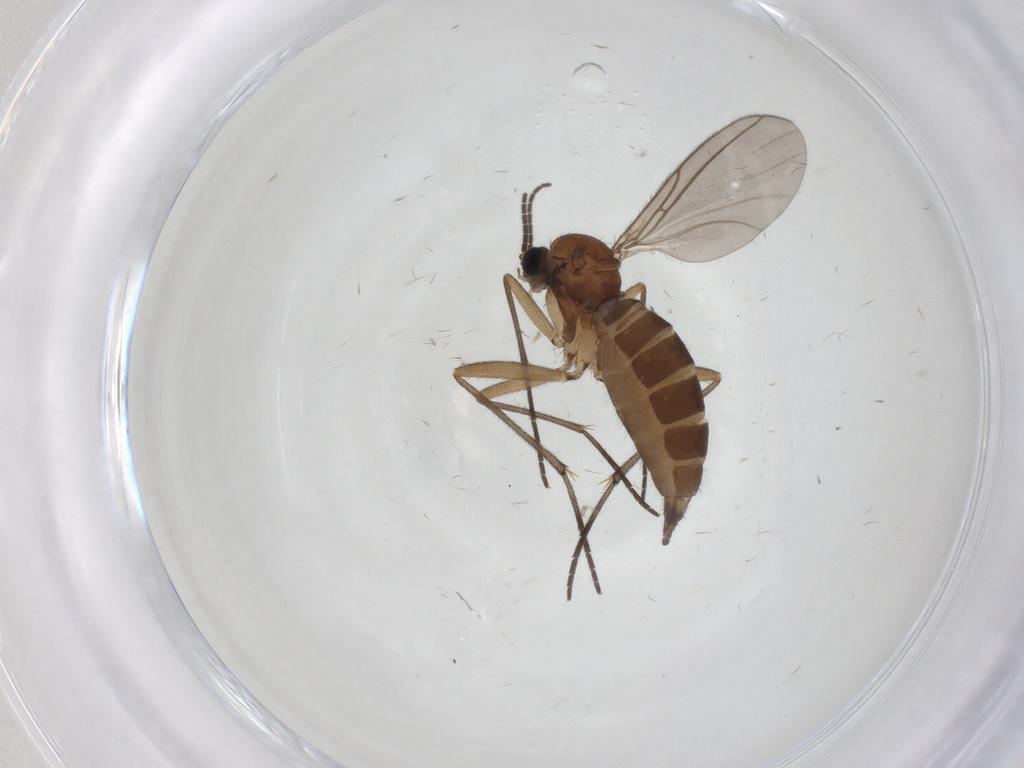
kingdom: Animalia
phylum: Arthropoda
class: Insecta
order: Diptera
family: Sciaridae
